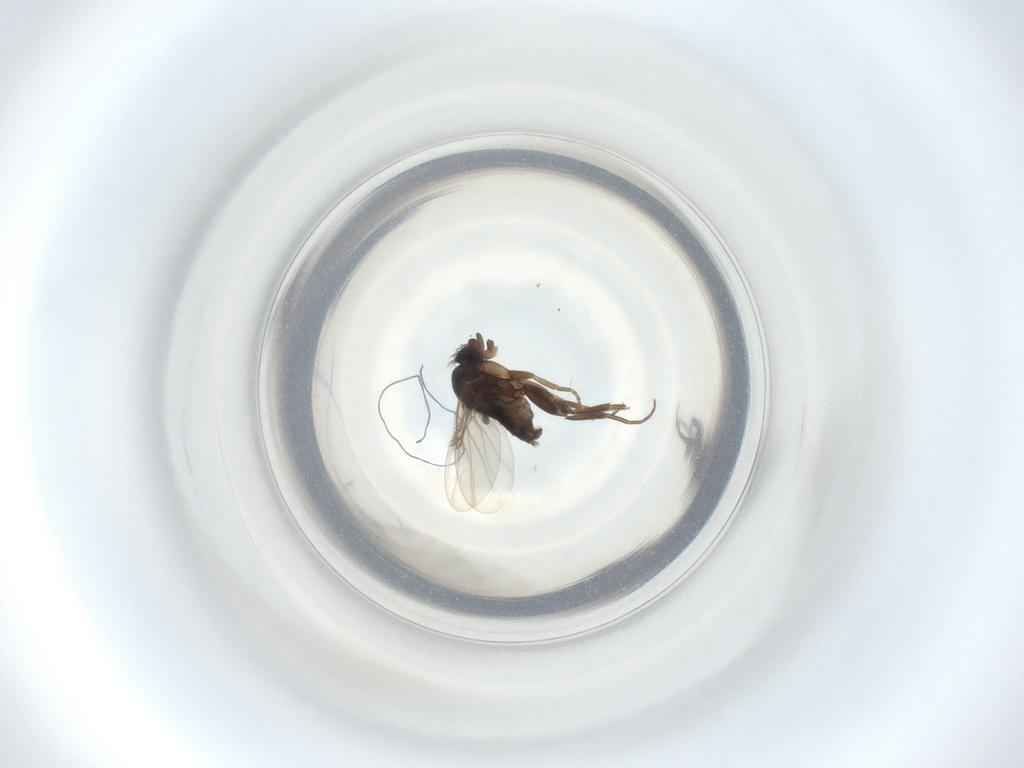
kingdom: Animalia
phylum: Arthropoda
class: Insecta
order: Diptera
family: Phoridae
